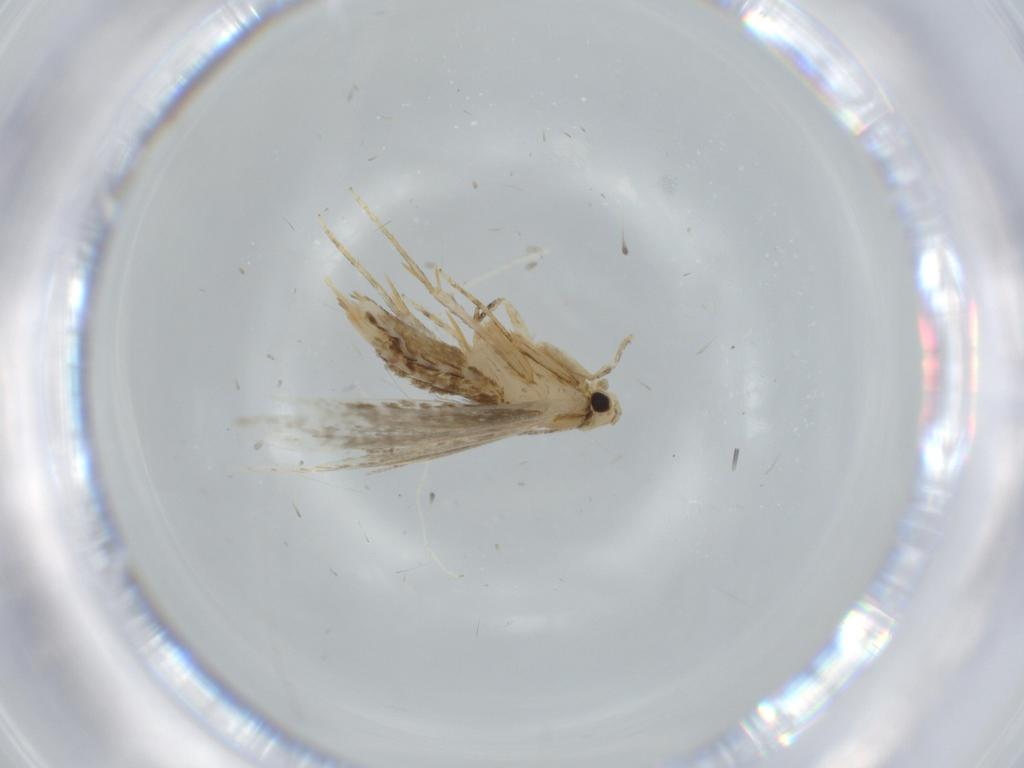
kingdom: Animalia
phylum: Arthropoda
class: Insecta
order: Lepidoptera
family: Tineidae
